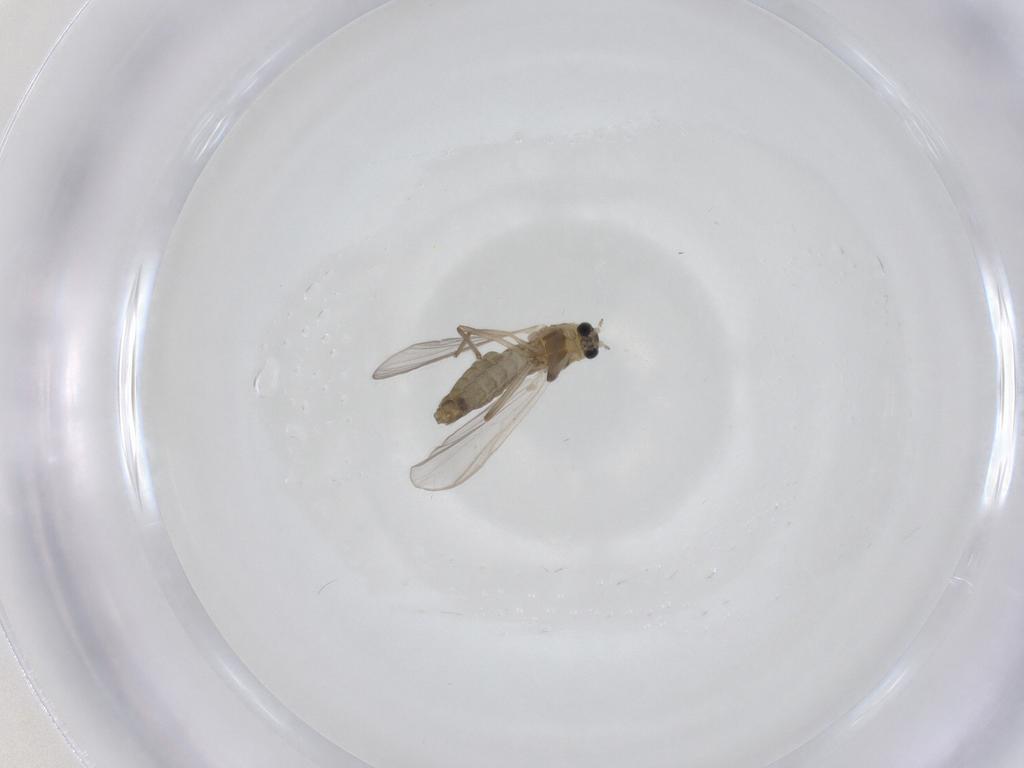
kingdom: Animalia
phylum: Arthropoda
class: Insecta
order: Diptera
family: Chironomidae
